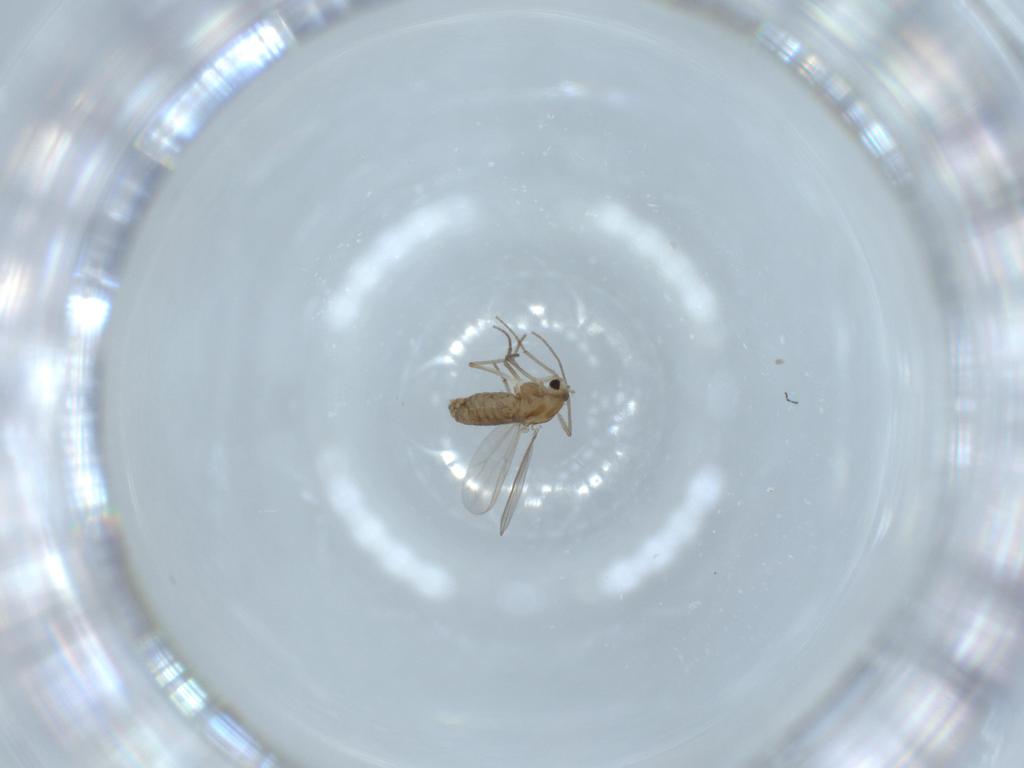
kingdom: Animalia
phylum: Arthropoda
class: Insecta
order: Diptera
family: Chironomidae
